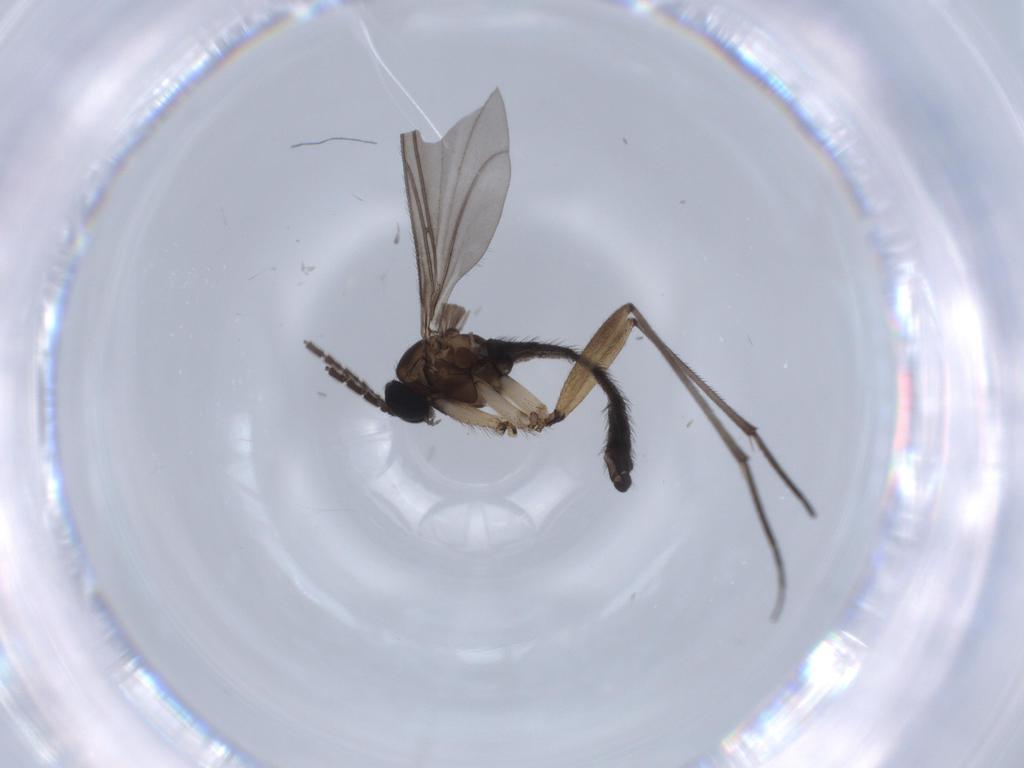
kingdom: Animalia
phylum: Arthropoda
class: Insecta
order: Diptera
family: Sciaridae
